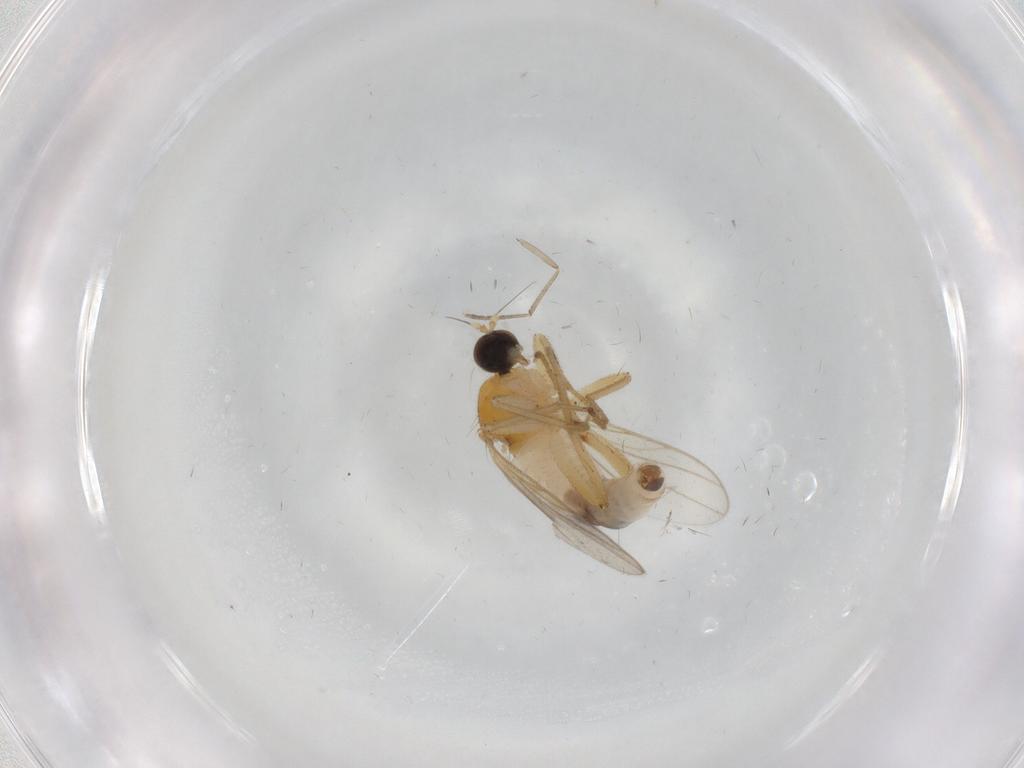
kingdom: Animalia
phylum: Arthropoda
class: Insecta
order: Diptera
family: Hybotidae
